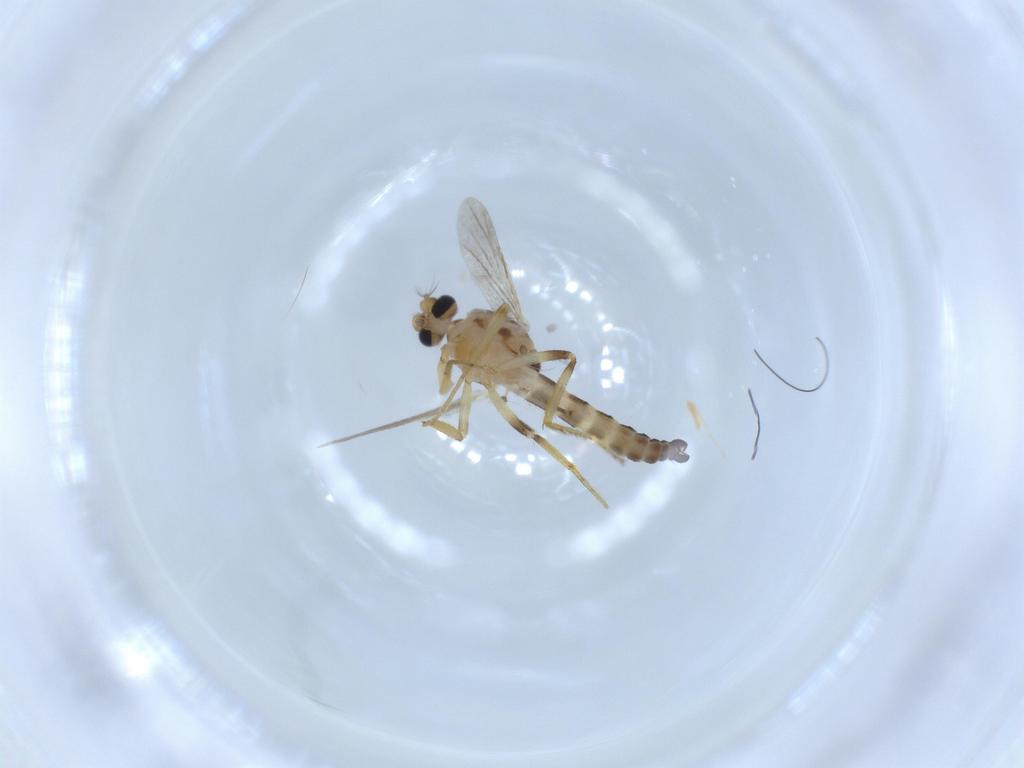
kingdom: Animalia
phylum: Arthropoda
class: Insecta
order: Diptera
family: Ceratopogonidae
